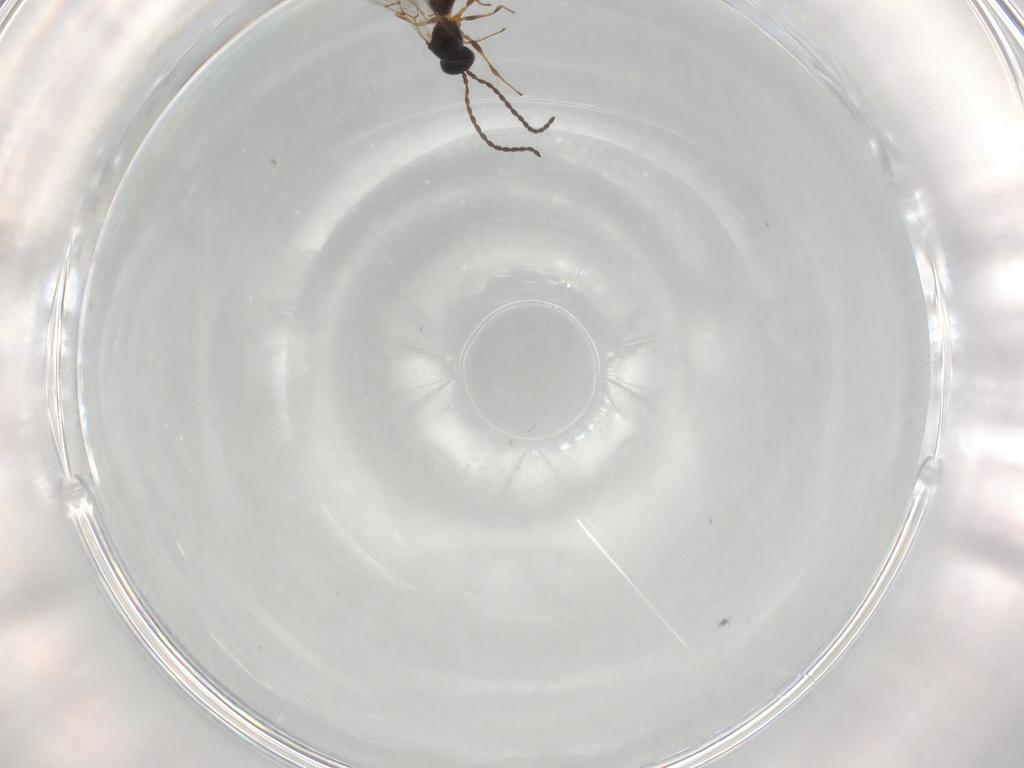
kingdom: Animalia
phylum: Arthropoda
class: Insecta
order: Hymenoptera
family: Figitidae
